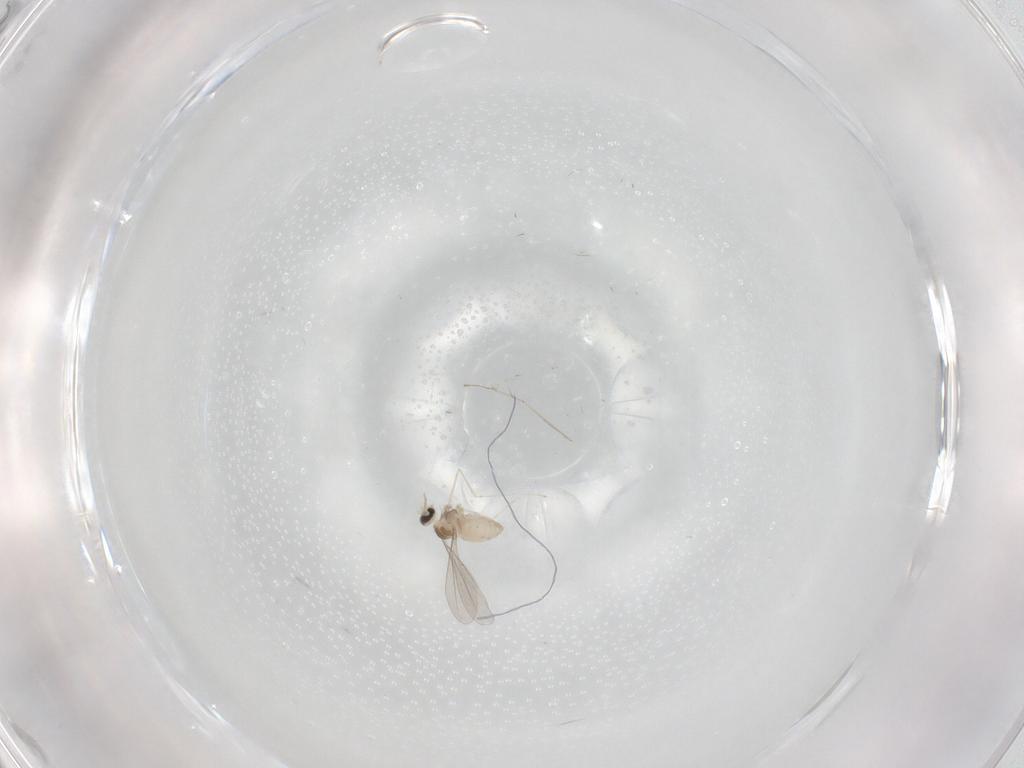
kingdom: Animalia
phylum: Arthropoda
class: Insecta
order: Diptera
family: Cecidomyiidae
